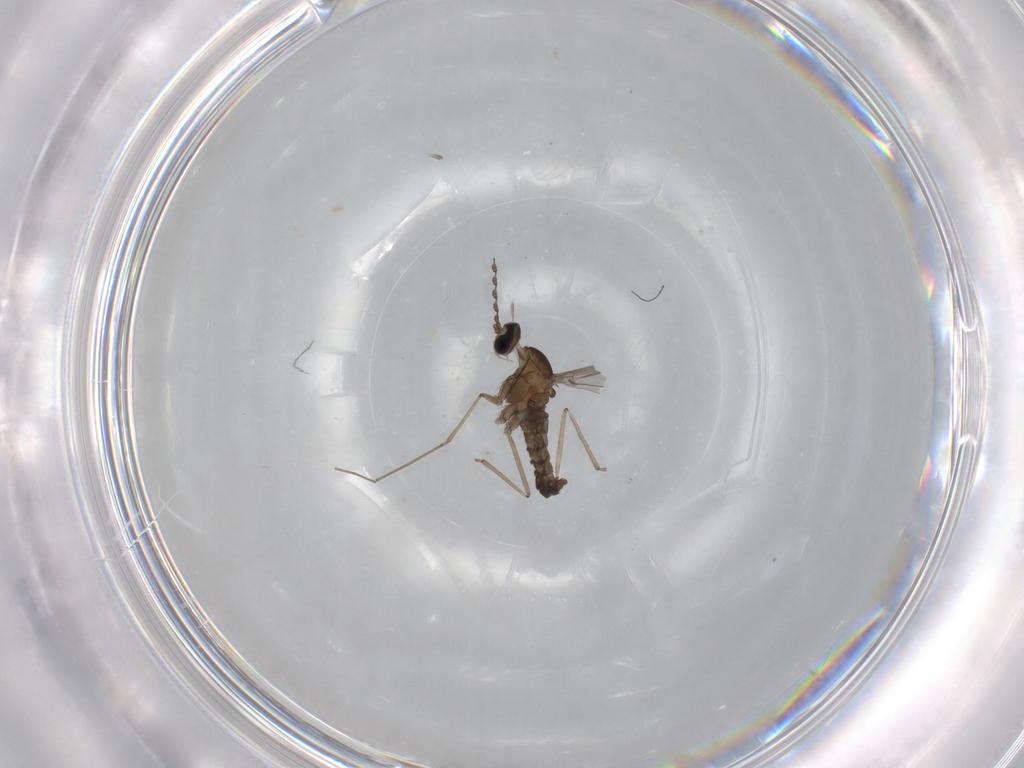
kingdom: Animalia
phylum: Arthropoda
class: Insecta
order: Diptera
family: Cecidomyiidae
